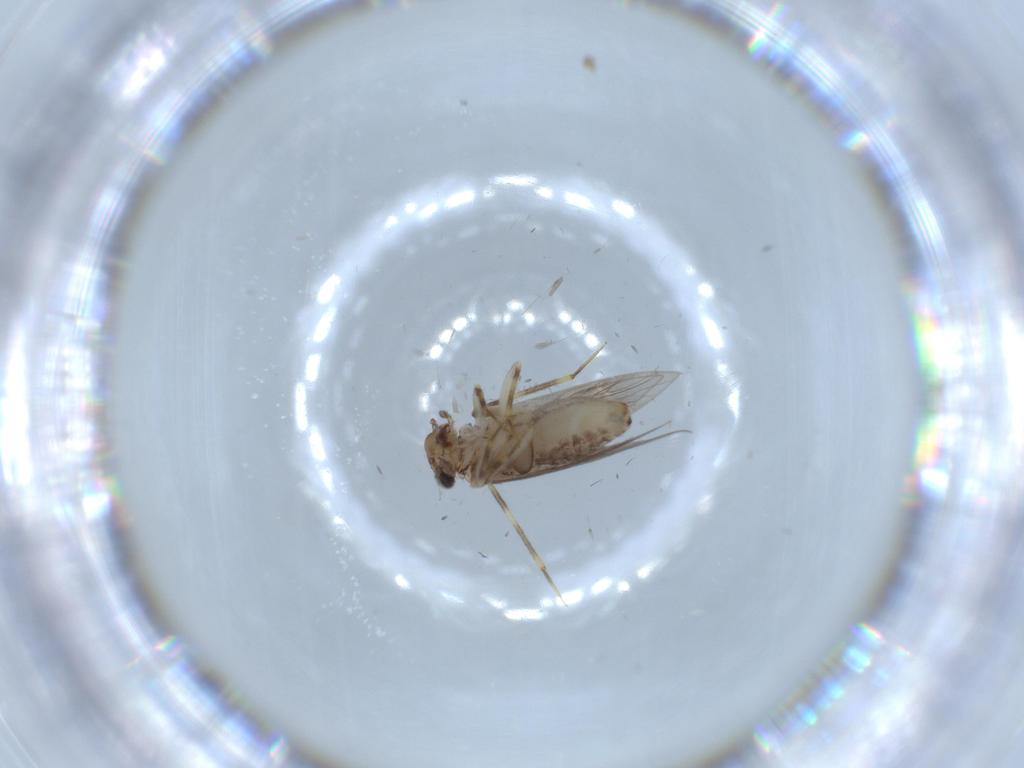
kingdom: Animalia
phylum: Arthropoda
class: Insecta
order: Psocodea
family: Lepidopsocidae
